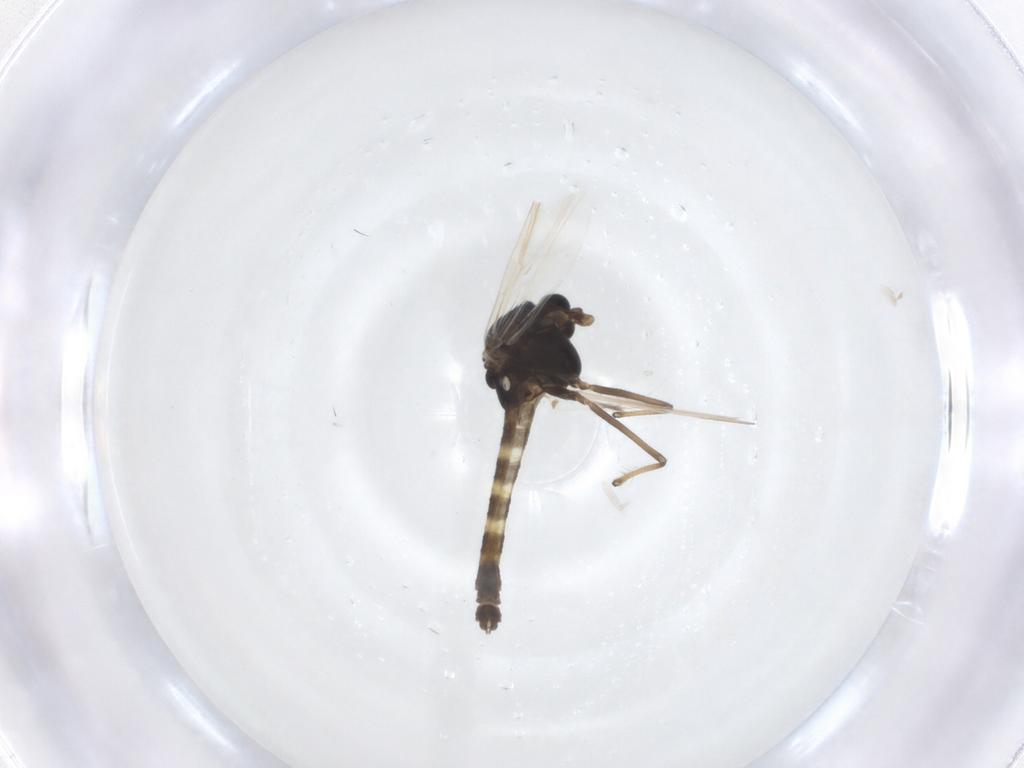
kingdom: Animalia
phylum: Arthropoda
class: Insecta
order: Diptera
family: Chironomidae
